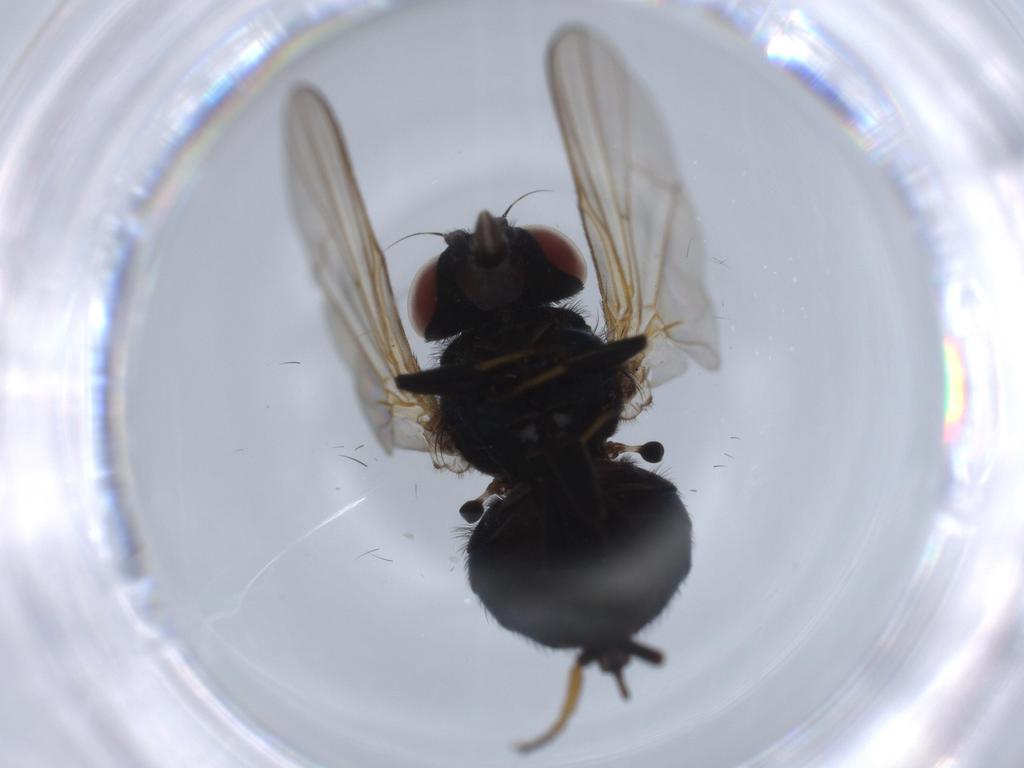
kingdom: Animalia
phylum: Arthropoda
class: Insecta
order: Diptera
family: Lonchaeidae
